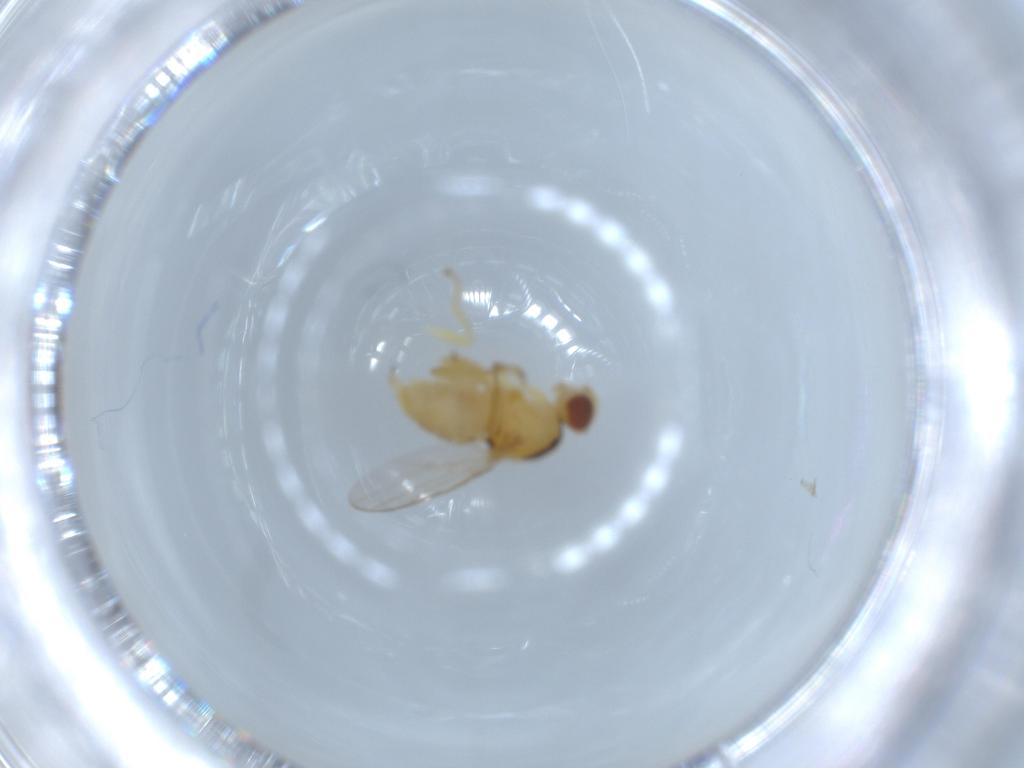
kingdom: Animalia
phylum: Arthropoda
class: Insecta
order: Diptera
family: Chloropidae
